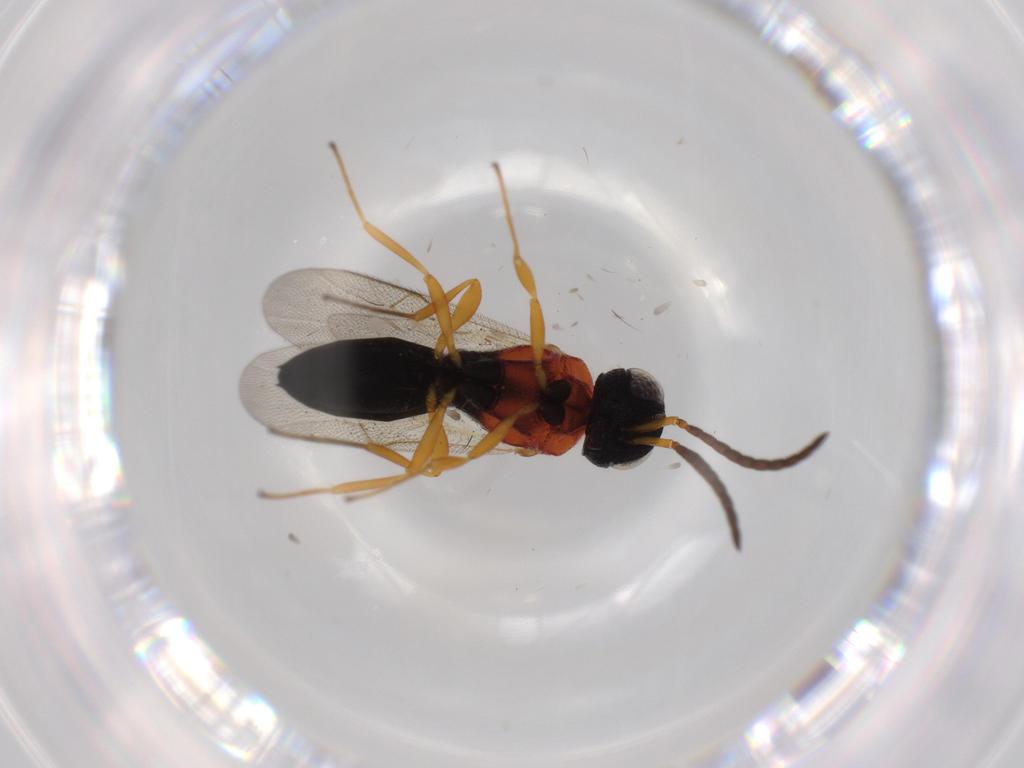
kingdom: Animalia
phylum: Arthropoda
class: Insecta
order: Hymenoptera
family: Scelionidae
